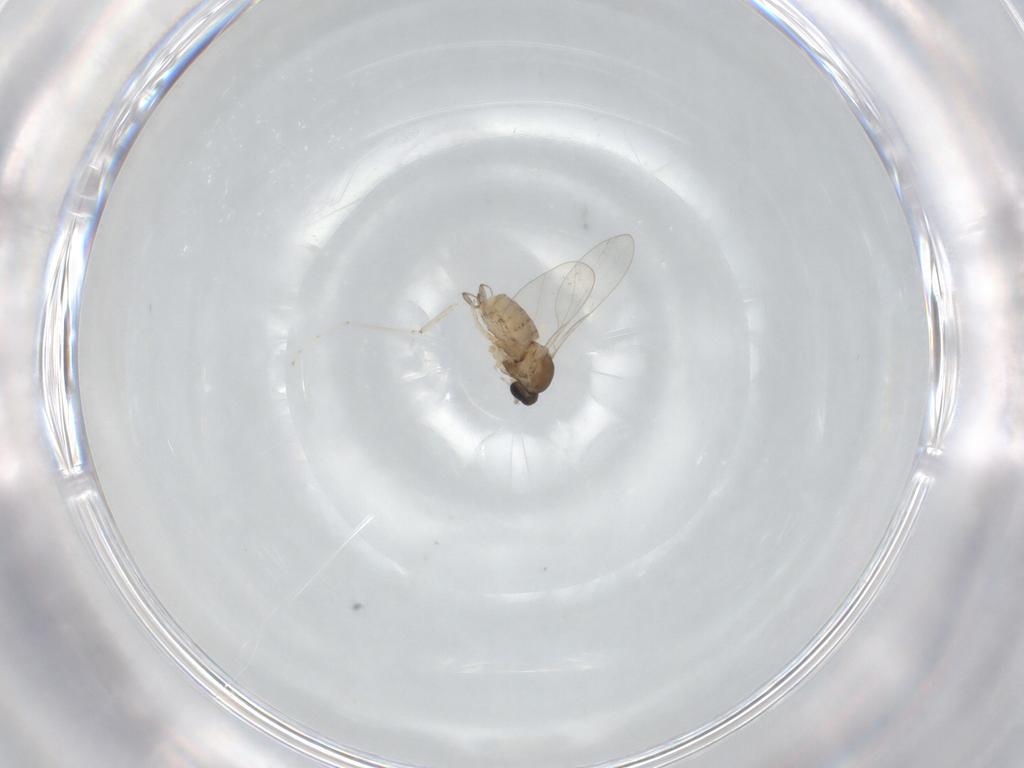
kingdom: Animalia
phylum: Arthropoda
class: Insecta
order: Diptera
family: Cecidomyiidae
